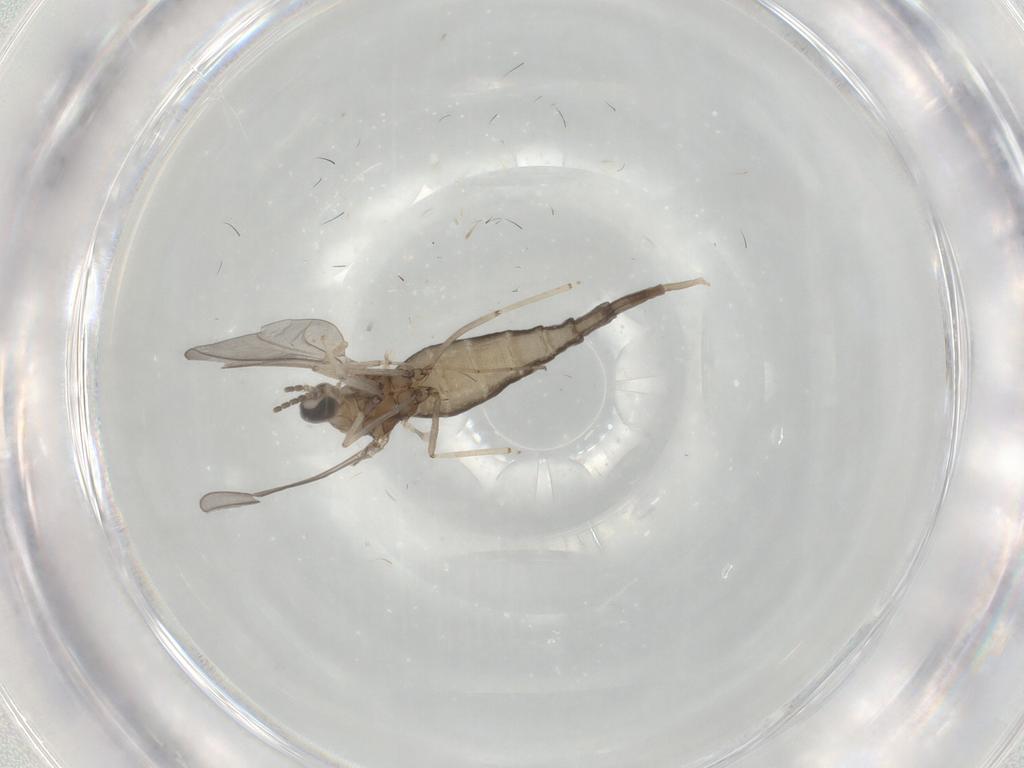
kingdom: Animalia
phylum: Arthropoda
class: Insecta
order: Diptera
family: Cecidomyiidae
